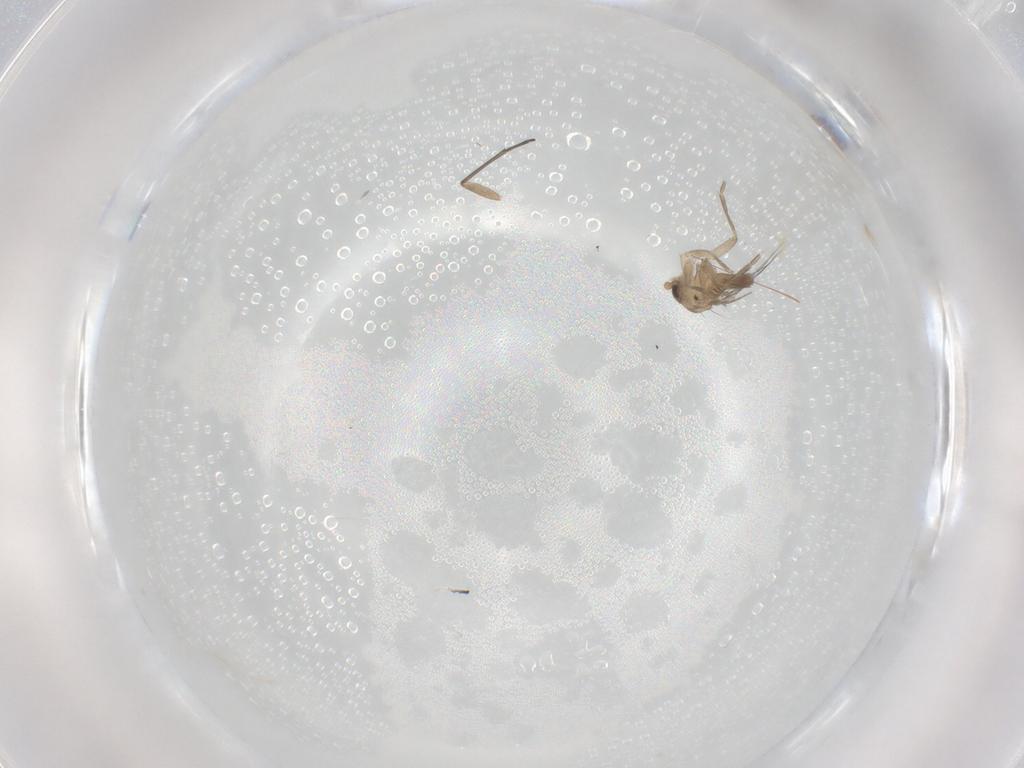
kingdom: Animalia
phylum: Arthropoda
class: Insecta
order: Diptera
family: Phoridae
